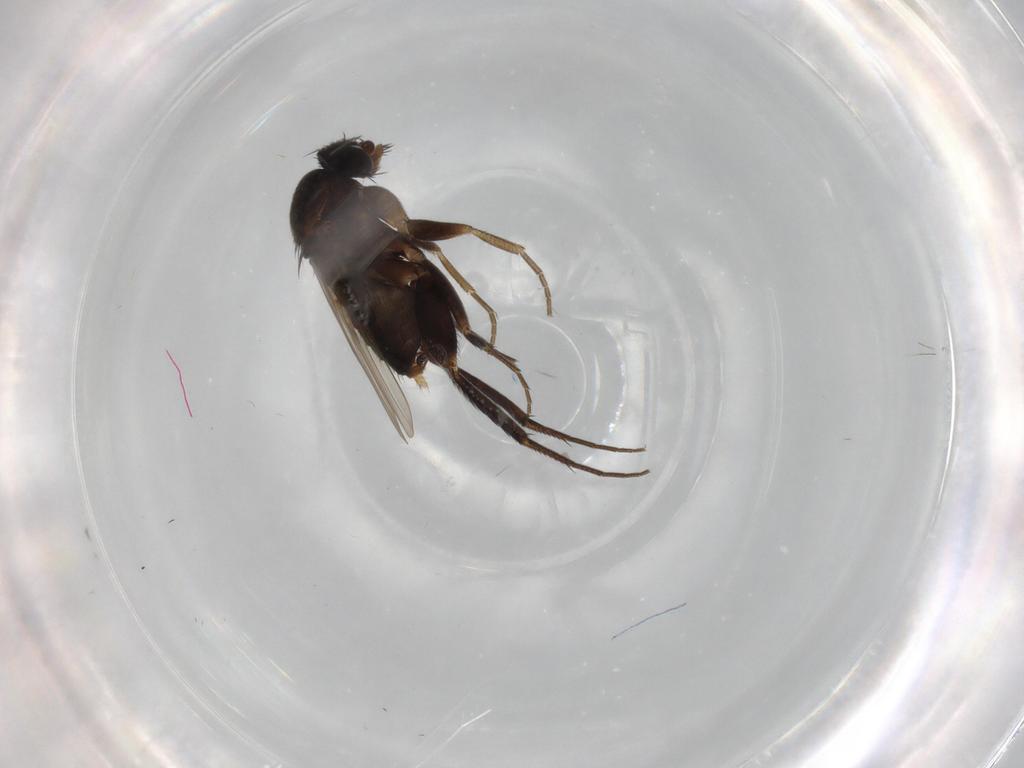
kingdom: Animalia
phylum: Arthropoda
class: Insecta
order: Diptera
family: Phoridae
